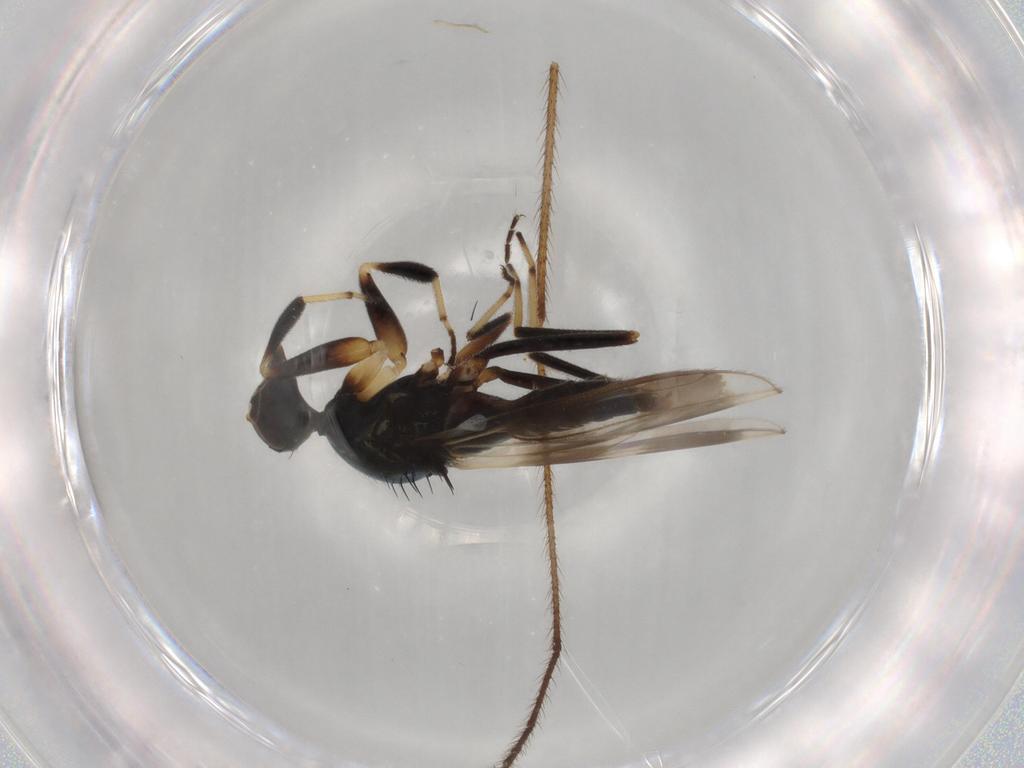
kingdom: Animalia
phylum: Arthropoda
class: Insecta
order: Diptera
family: Hybotidae
